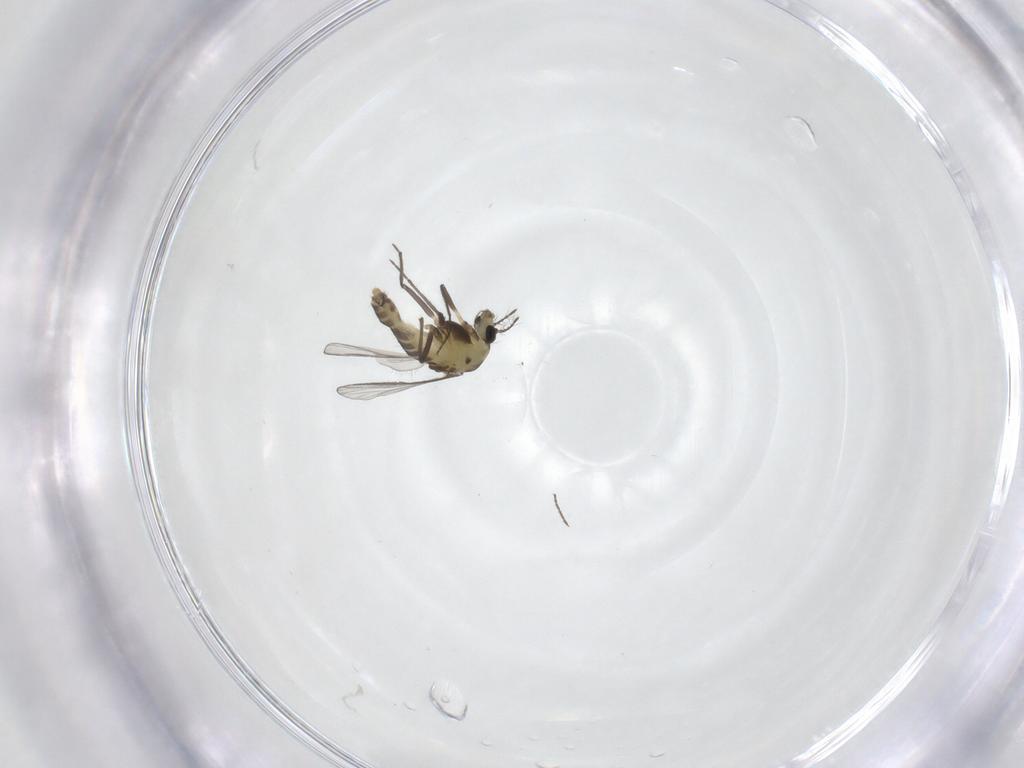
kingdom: Animalia
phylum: Arthropoda
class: Insecta
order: Diptera
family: Chironomidae
